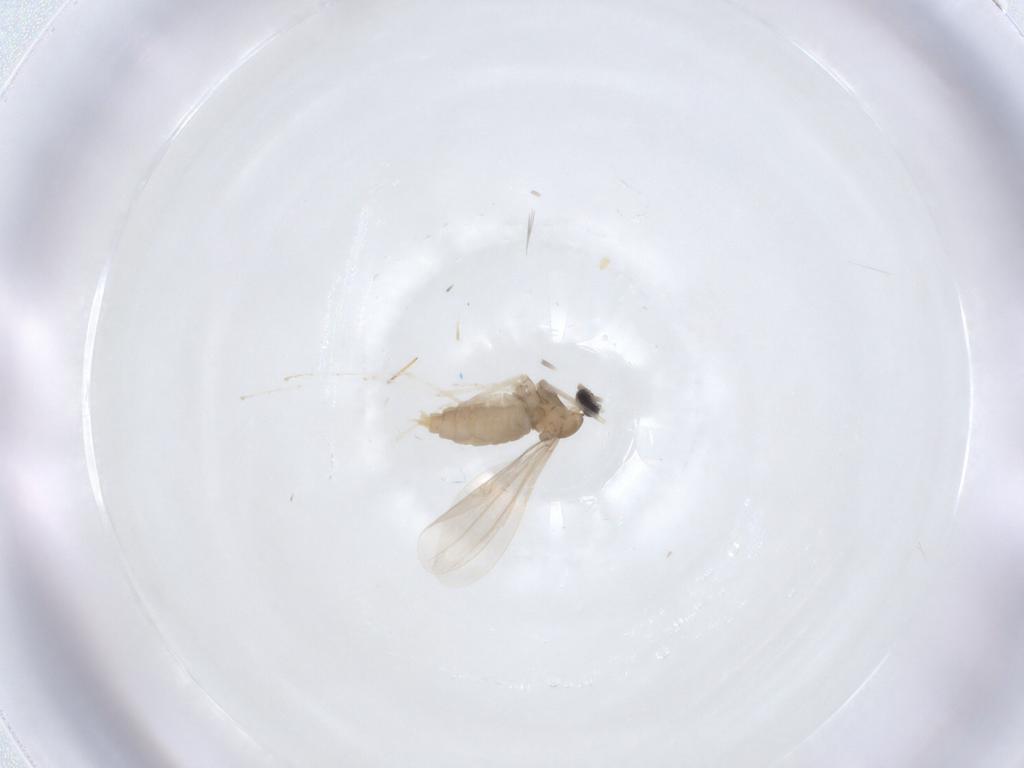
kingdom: Animalia
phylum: Arthropoda
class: Insecta
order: Diptera
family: Cecidomyiidae
